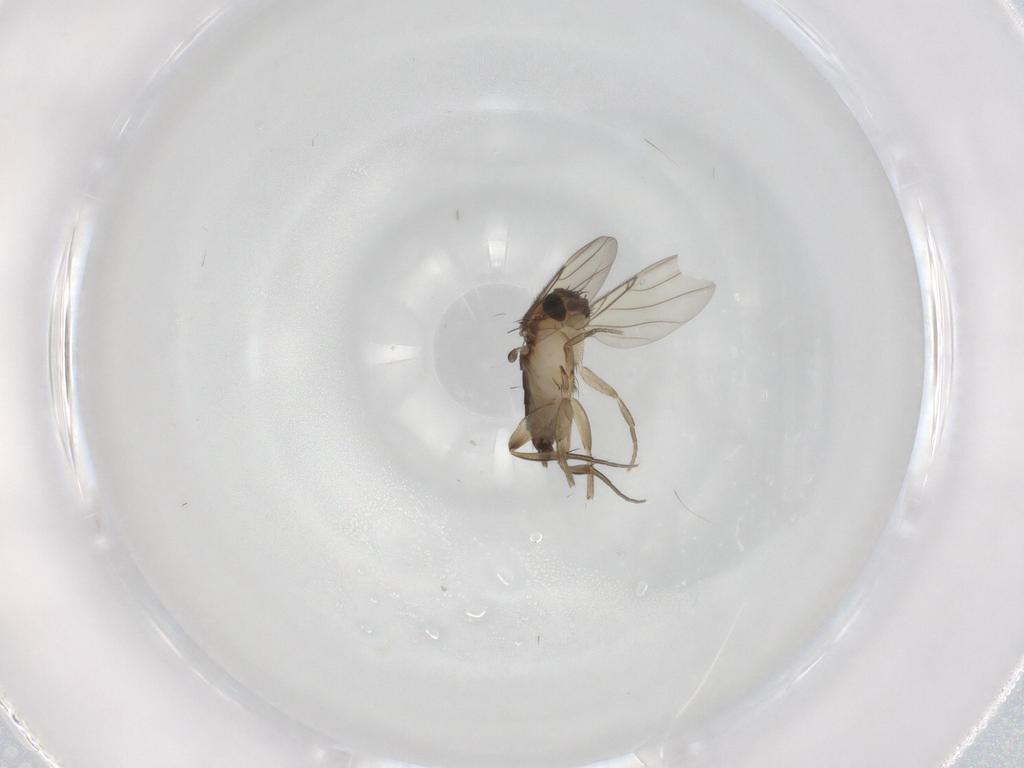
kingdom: Animalia
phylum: Arthropoda
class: Insecta
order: Diptera
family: Phoridae
